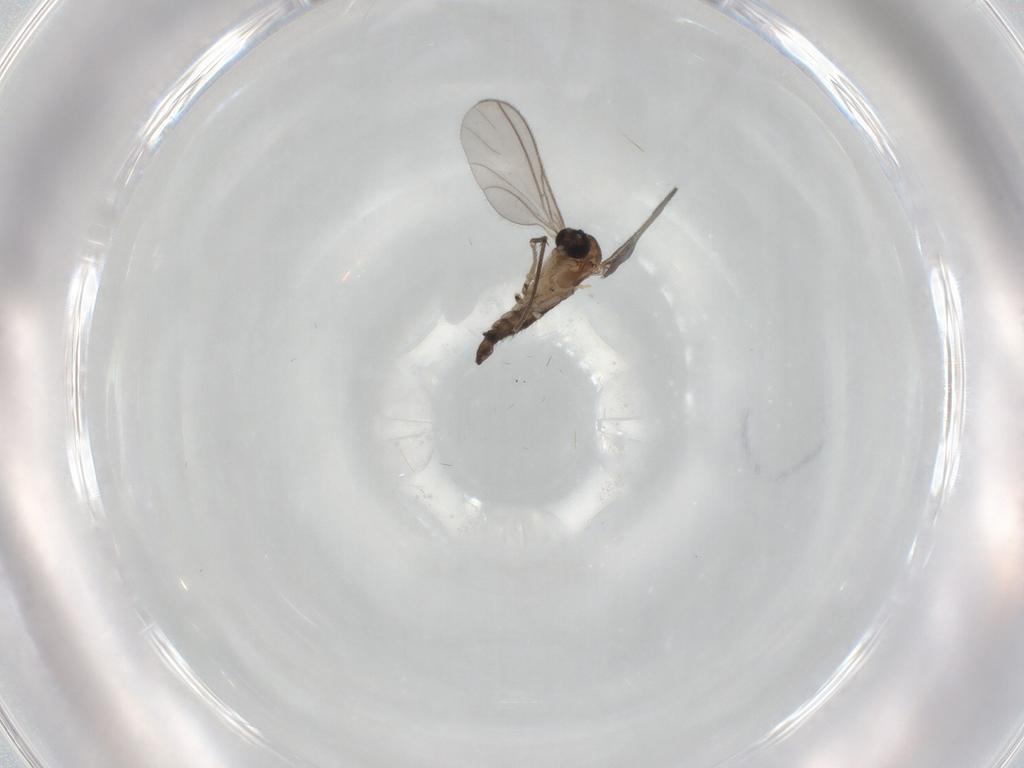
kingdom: Animalia
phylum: Arthropoda
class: Insecta
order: Diptera
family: Sciaridae
